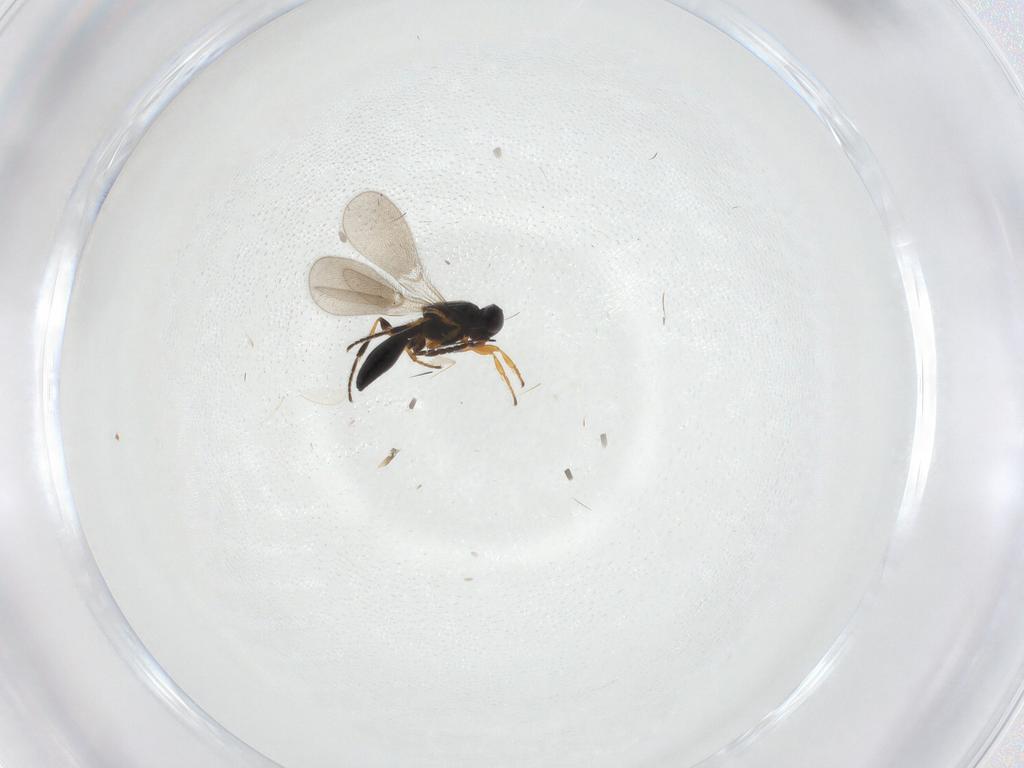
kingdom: Animalia
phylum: Arthropoda
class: Insecta
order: Hymenoptera
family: Platygastridae
